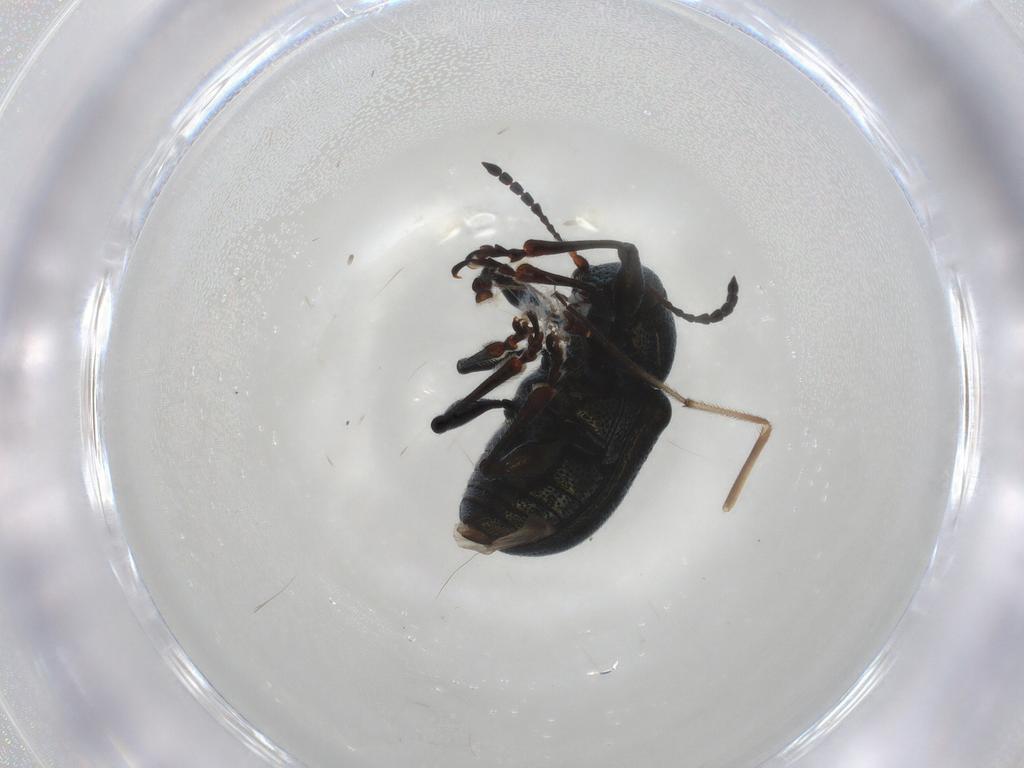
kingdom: Animalia
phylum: Arthropoda
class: Insecta
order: Coleoptera
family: Chrysomelidae
